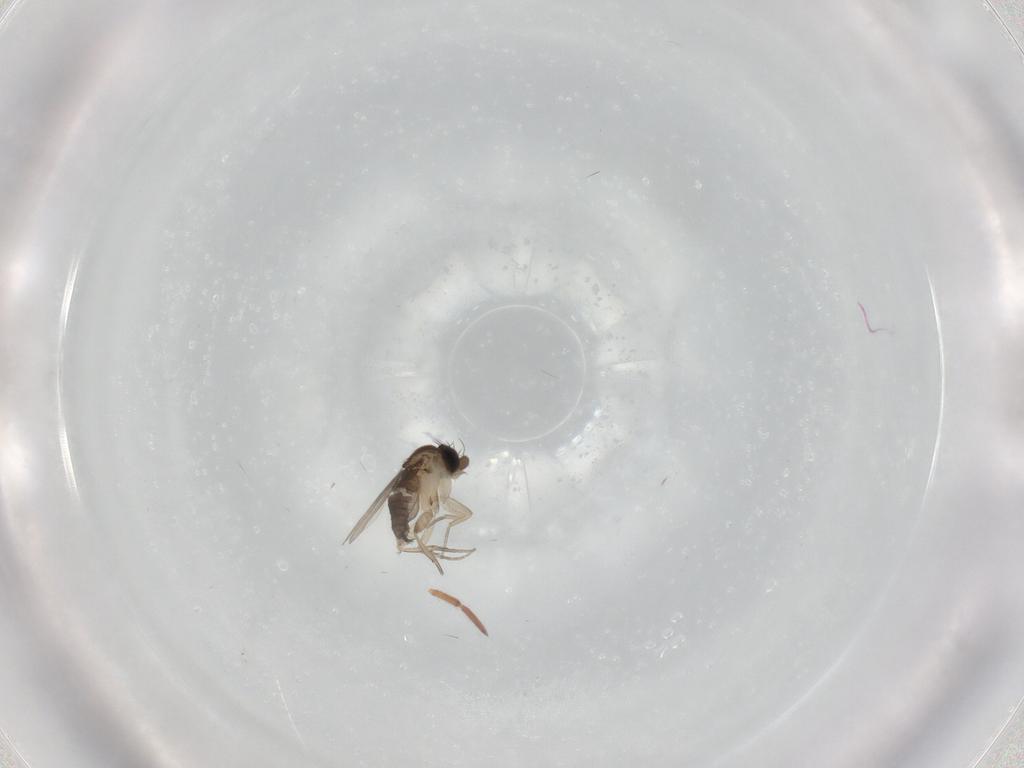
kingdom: Animalia
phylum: Arthropoda
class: Insecta
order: Diptera
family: Phoridae
